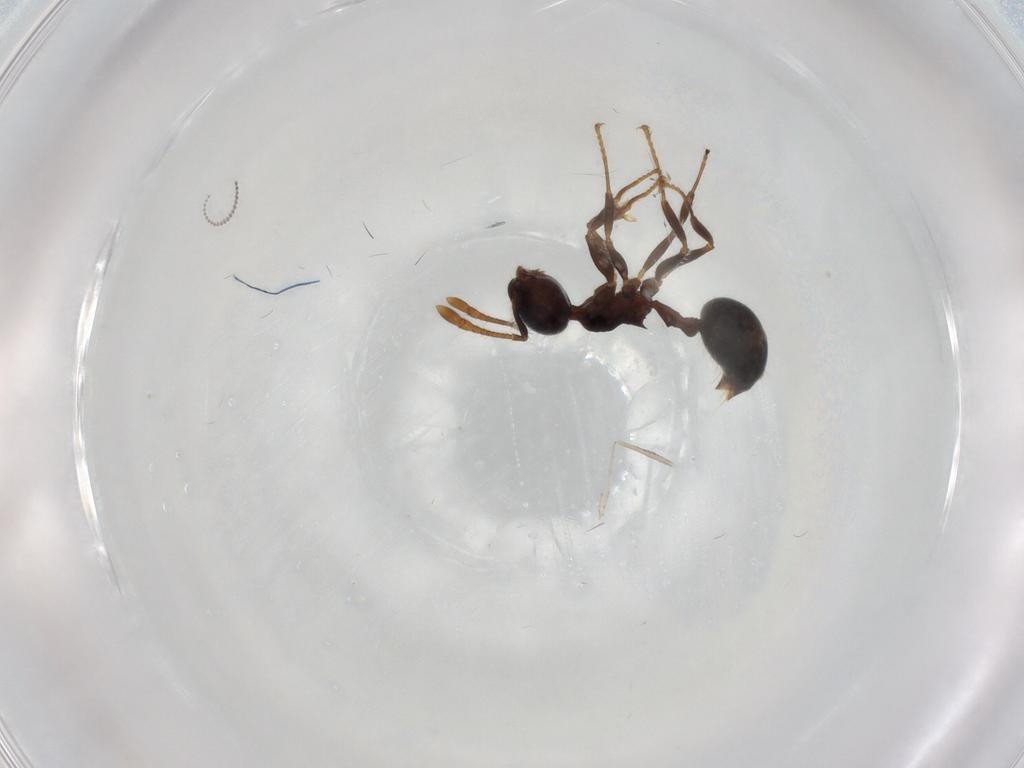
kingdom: Animalia
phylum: Arthropoda
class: Insecta
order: Hymenoptera
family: Formicidae
